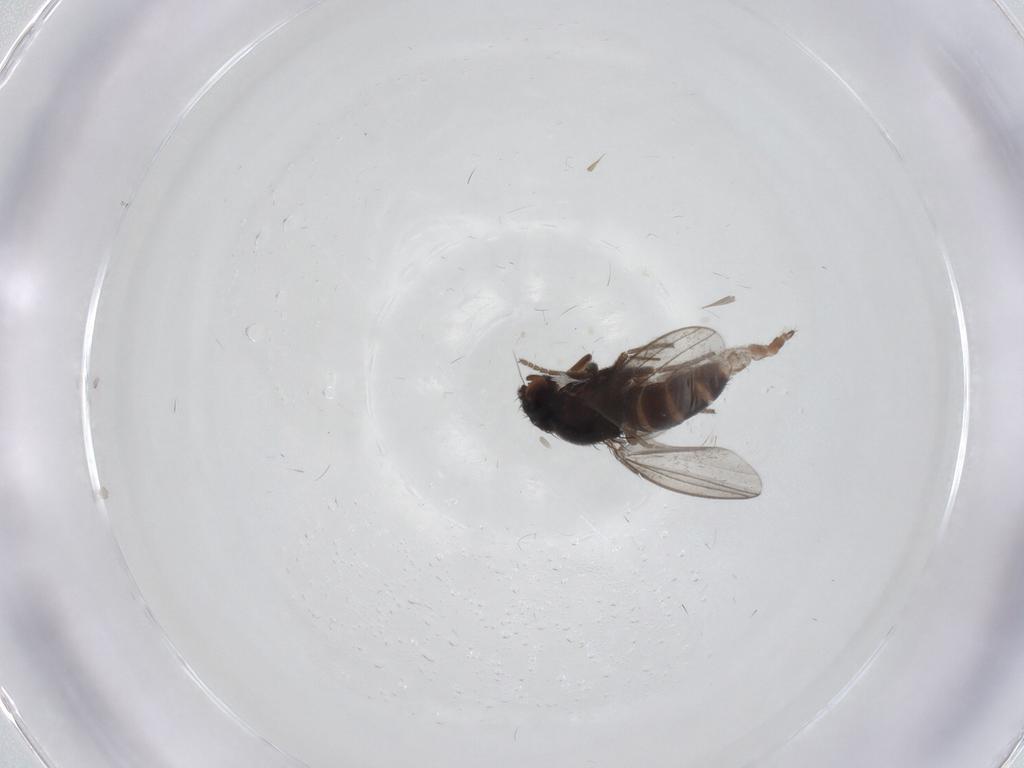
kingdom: Animalia
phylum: Arthropoda
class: Insecta
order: Diptera
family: Milichiidae
